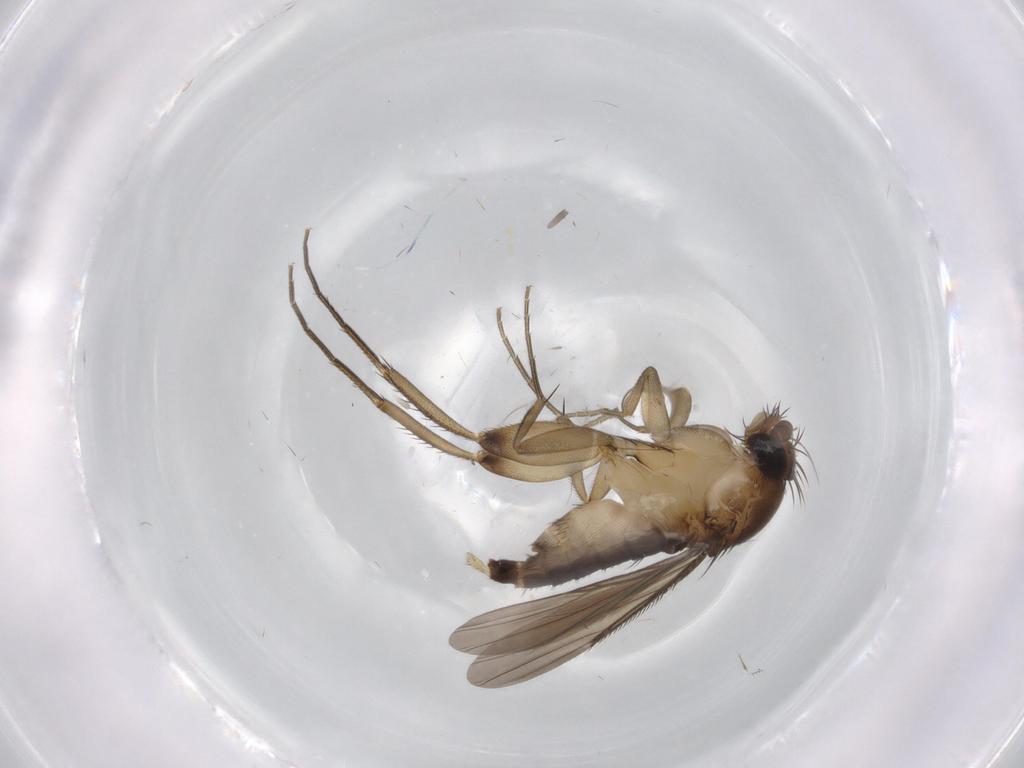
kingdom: Animalia
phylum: Arthropoda
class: Insecta
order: Diptera
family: Phoridae
